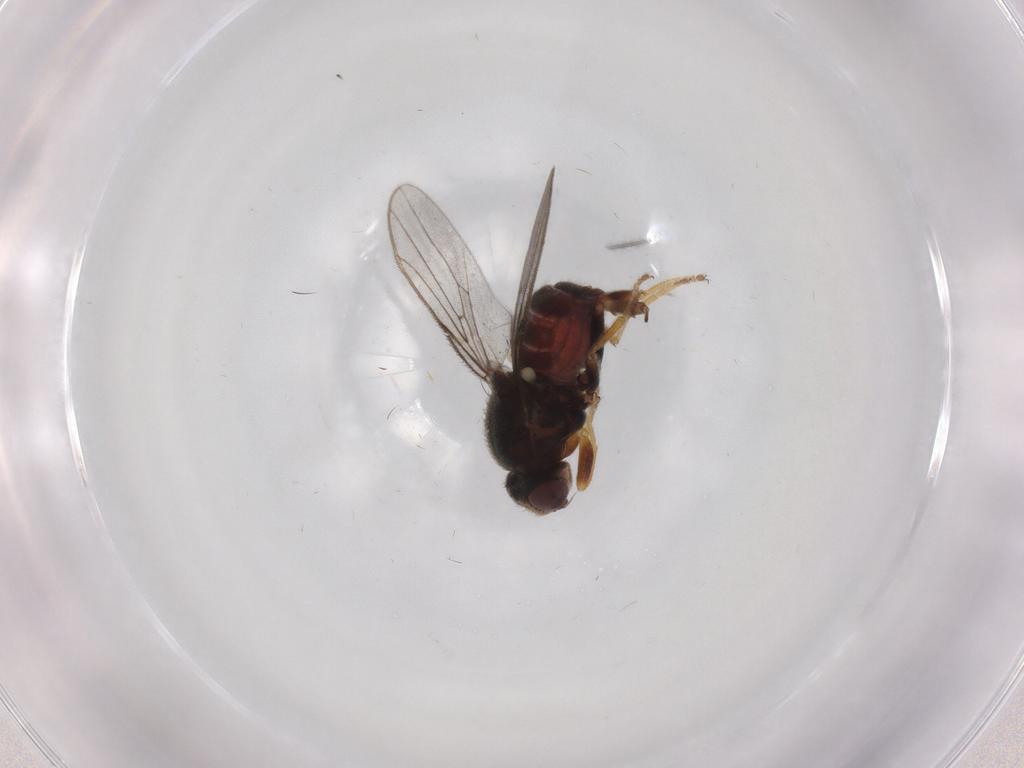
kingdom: Animalia
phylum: Arthropoda
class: Insecta
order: Diptera
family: Chloropidae
